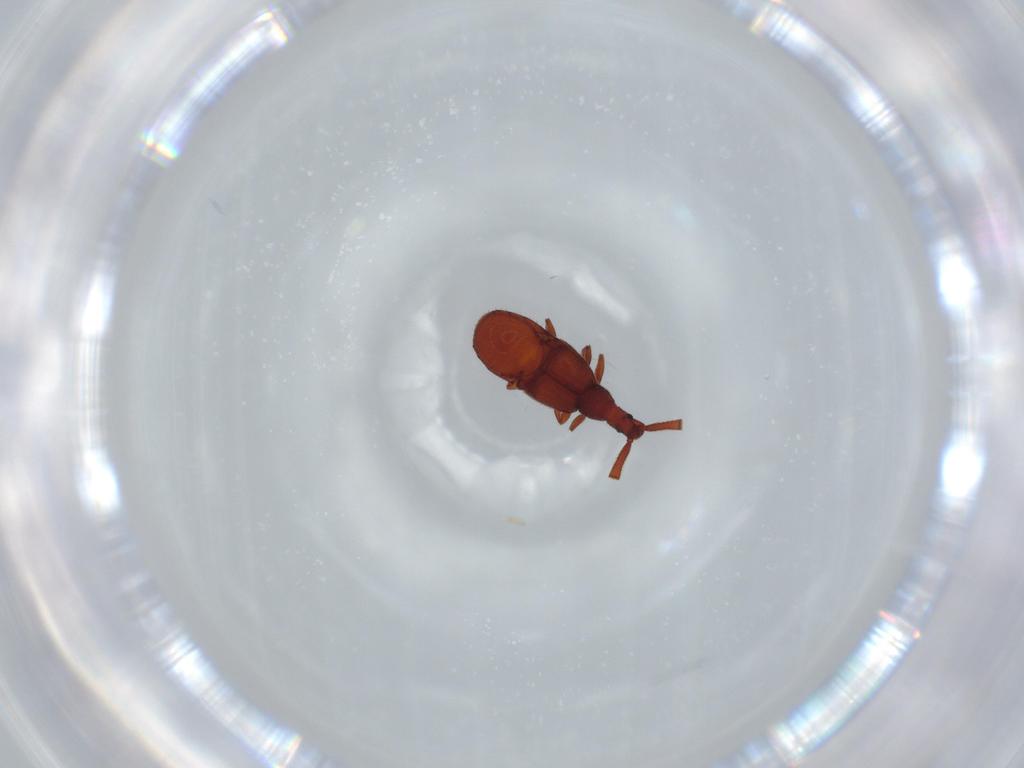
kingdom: Animalia
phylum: Arthropoda
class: Insecta
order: Coleoptera
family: Staphylinidae
